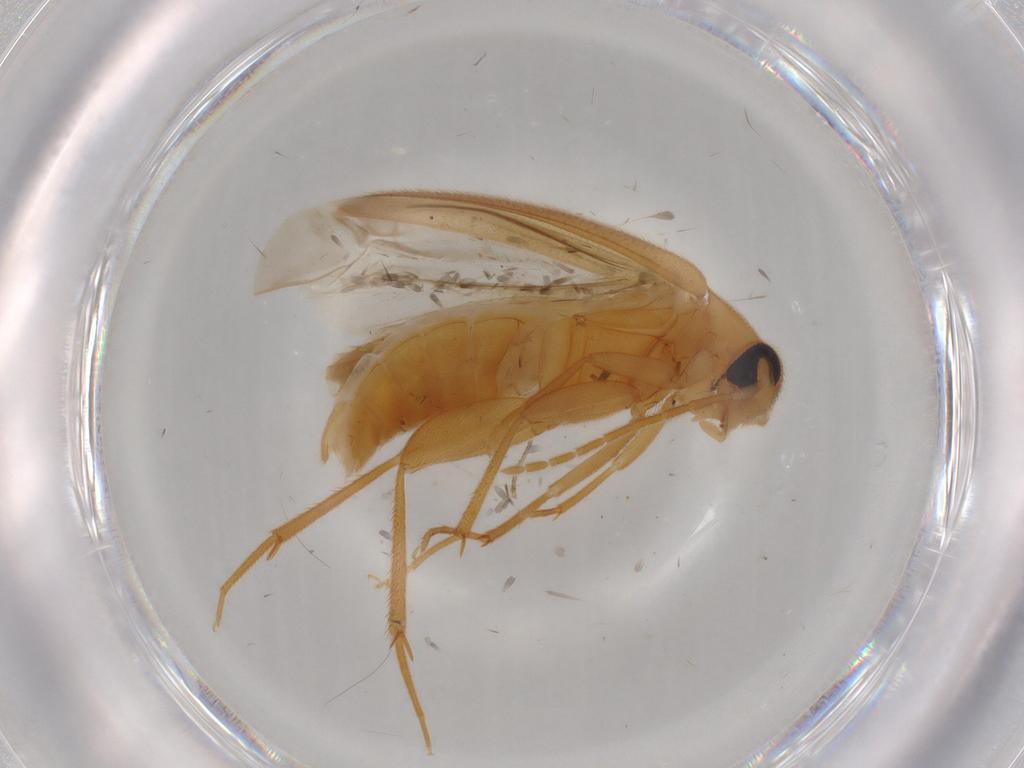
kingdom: Animalia
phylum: Arthropoda
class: Insecta
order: Coleoptera
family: Scraptiidae
